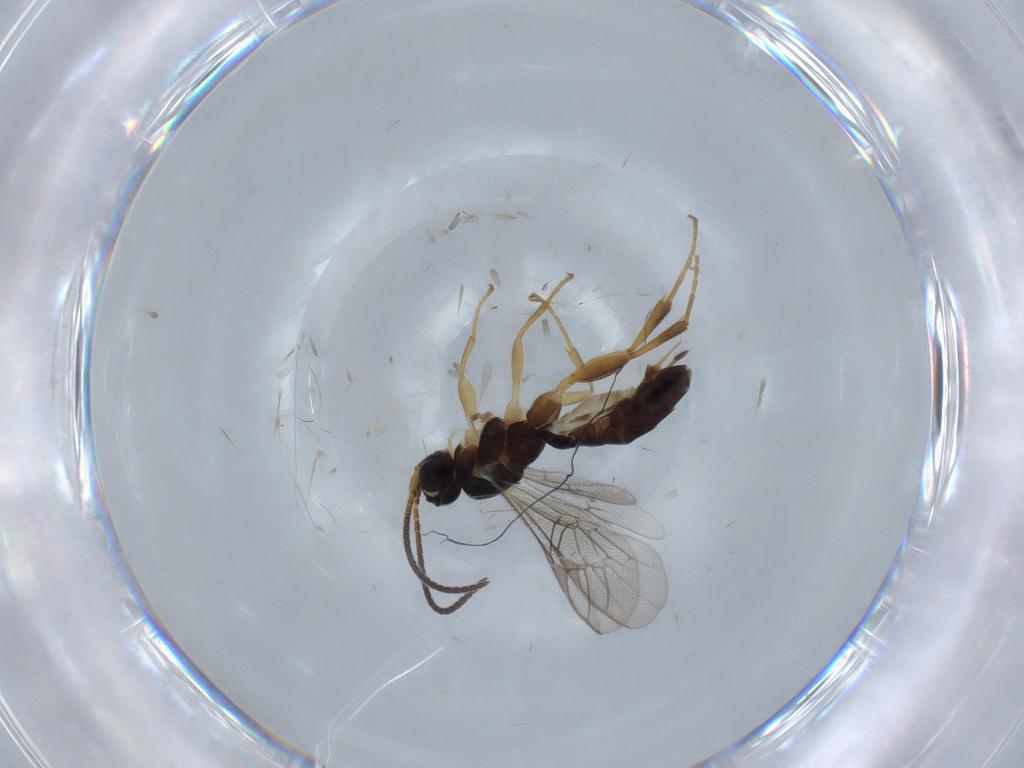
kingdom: Animalia
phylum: Arthropoda
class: Insecta
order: Hymenoptera
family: Ichneumonidae
